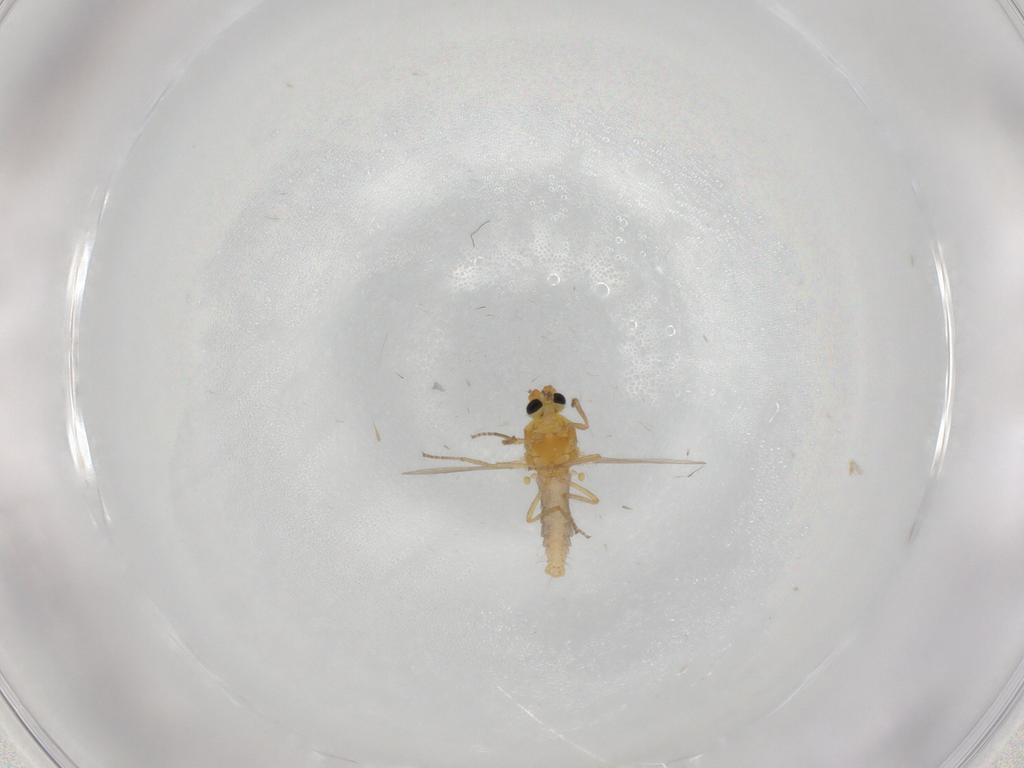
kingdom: Animalia
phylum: Arthropoda
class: Insecta
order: Diptera
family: Ceratopogonidae
